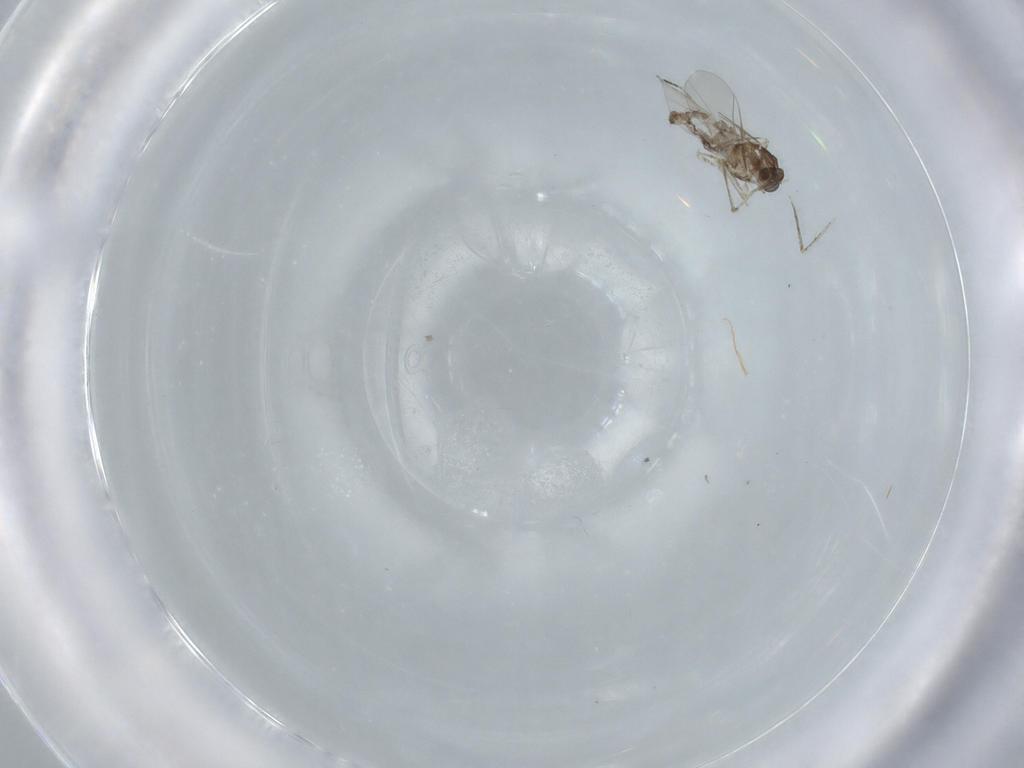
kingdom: Animalia
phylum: Arthropoda
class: Insecta
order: Diptera
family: Cecidomyiidae
